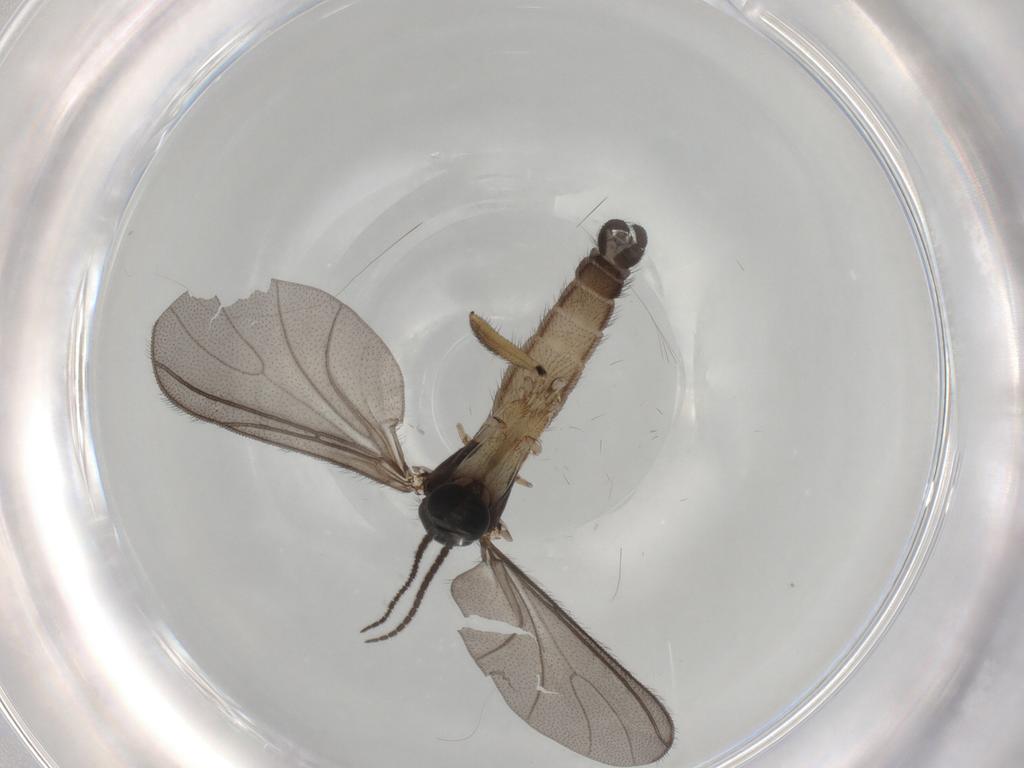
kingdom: Animalia
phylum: Arthropoda
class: Insecta
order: Diptera
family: Sciaridae
